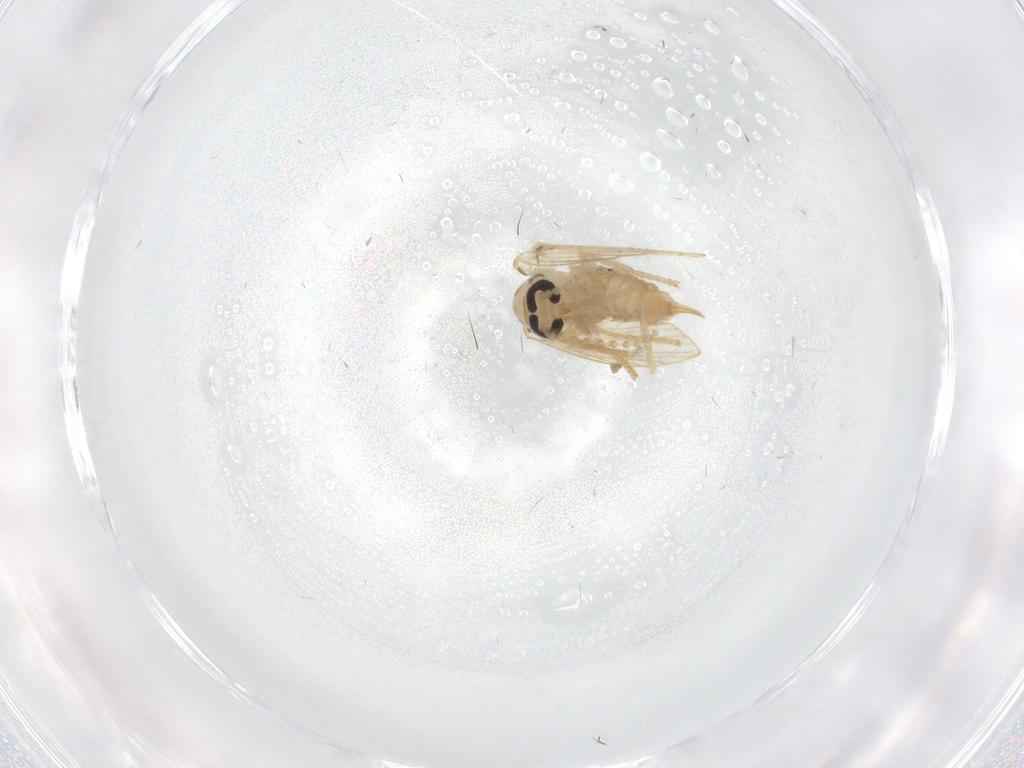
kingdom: Animalia
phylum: Arthropoda
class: Insecta
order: Diptera
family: Psychodidae
